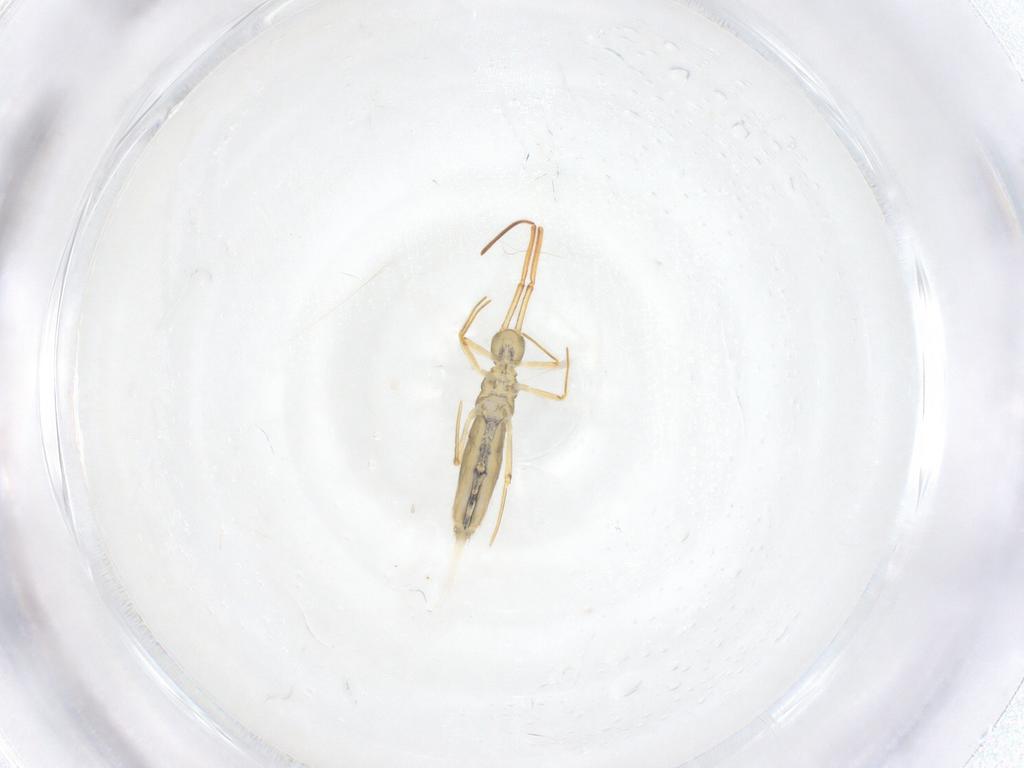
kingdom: Animalia
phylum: Arthropoda
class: Collembola
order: Entomobryomorpha
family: Entomobryidae
